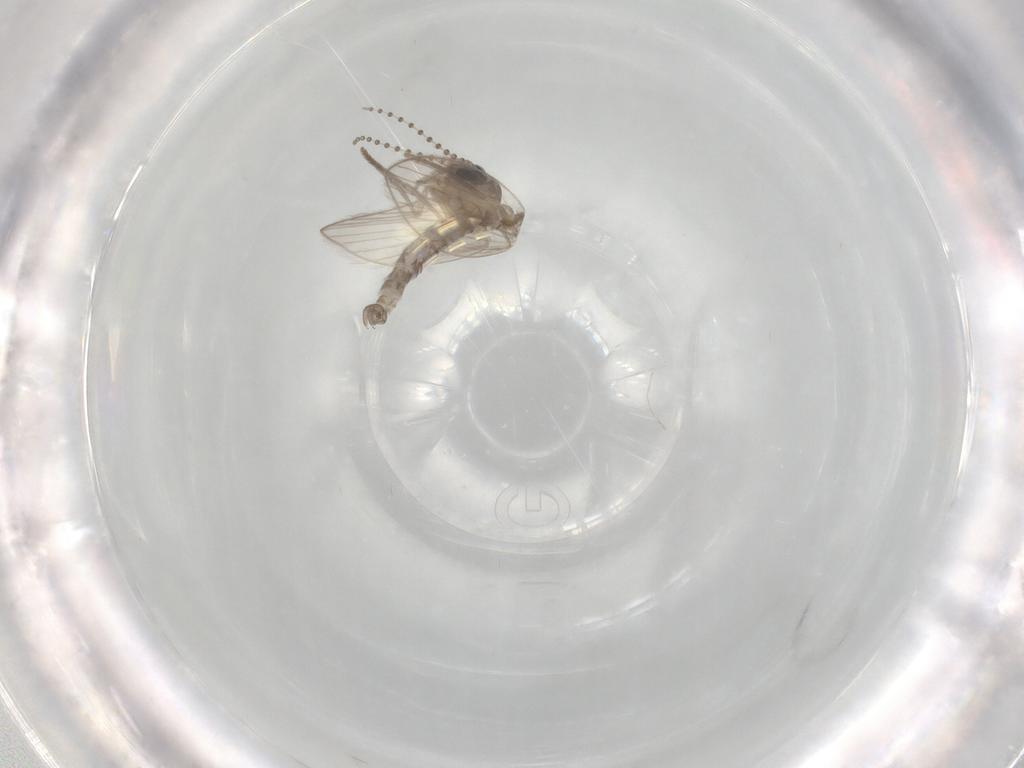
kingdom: Animalia
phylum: Arthropoda
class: Insecta
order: Diptera
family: Psychodidae
